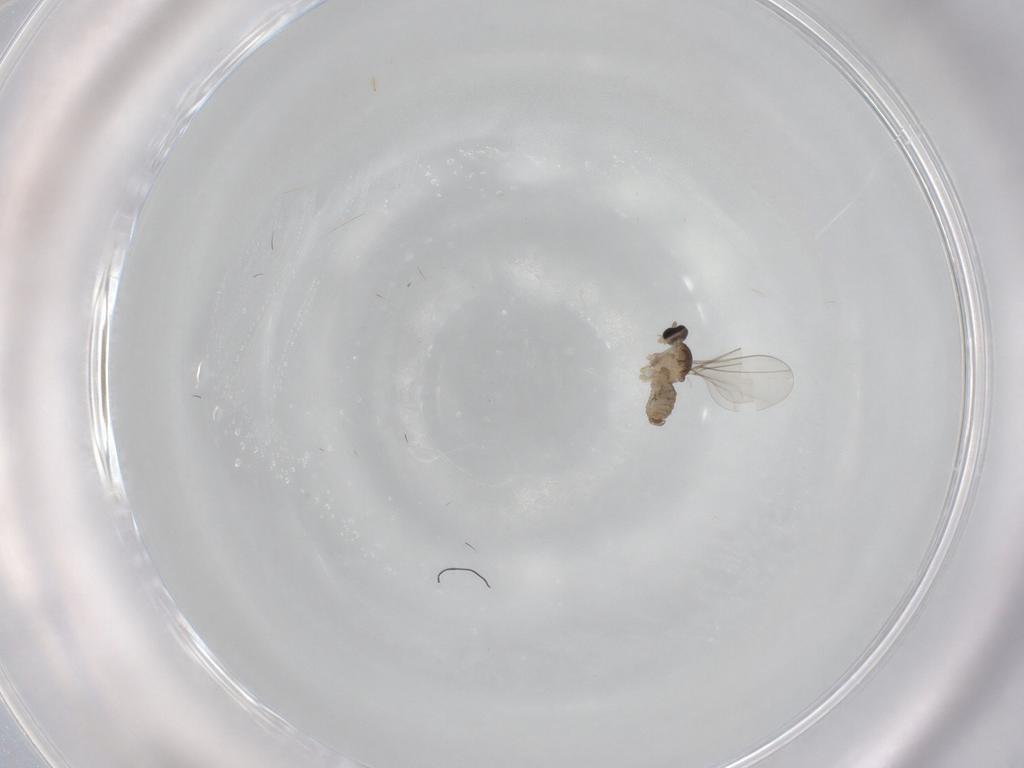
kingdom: Animalia
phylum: Arthropoda
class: Insecta
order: Diptera
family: Cecidomyiidae
